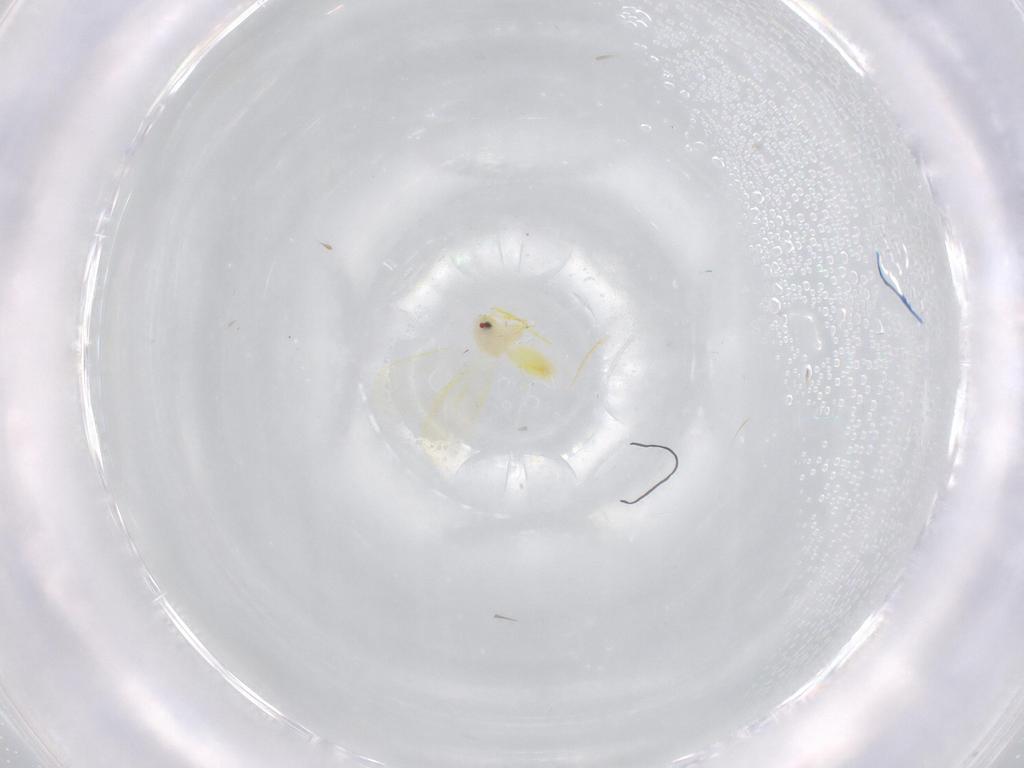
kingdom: Animalia
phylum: Arthropoda
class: Insecta
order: Hemiptera
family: Aleyrodidae
